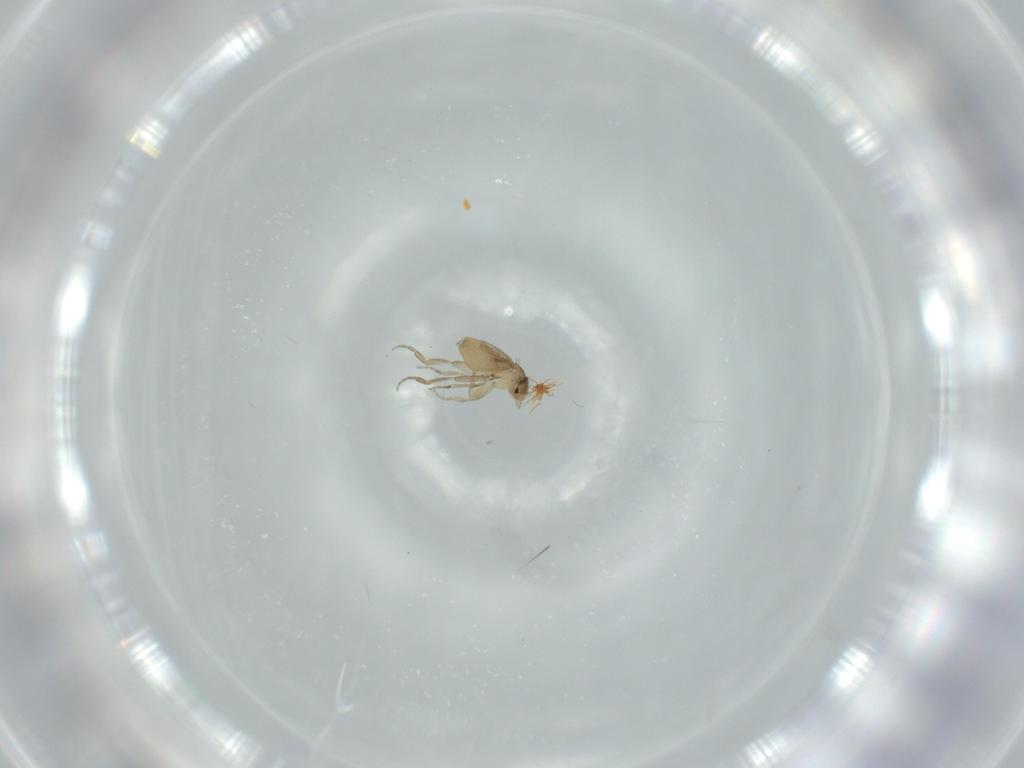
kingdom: Animalia
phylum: Arthropoda
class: Insecta
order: Diptera
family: Phoridae
